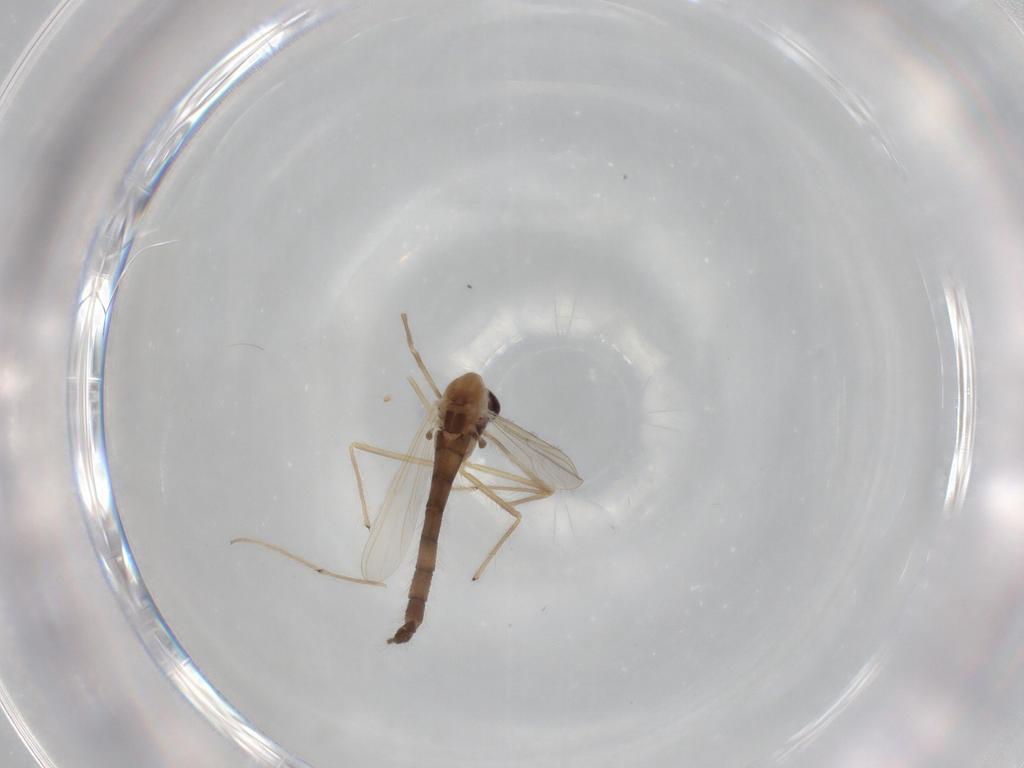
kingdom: Animalia
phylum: Arthropoda
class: Insecta
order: Diptera
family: Chironomidae
